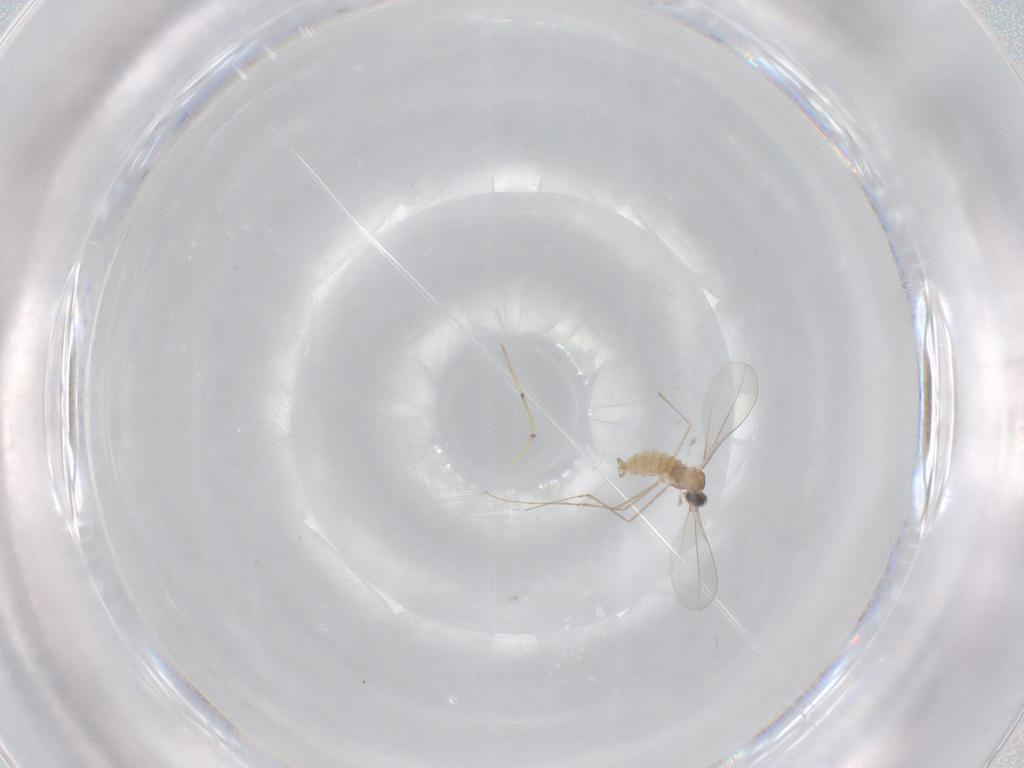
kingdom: Animalia
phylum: Arthropoda
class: Insecta
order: Diptera
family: Cecidomyiidae
